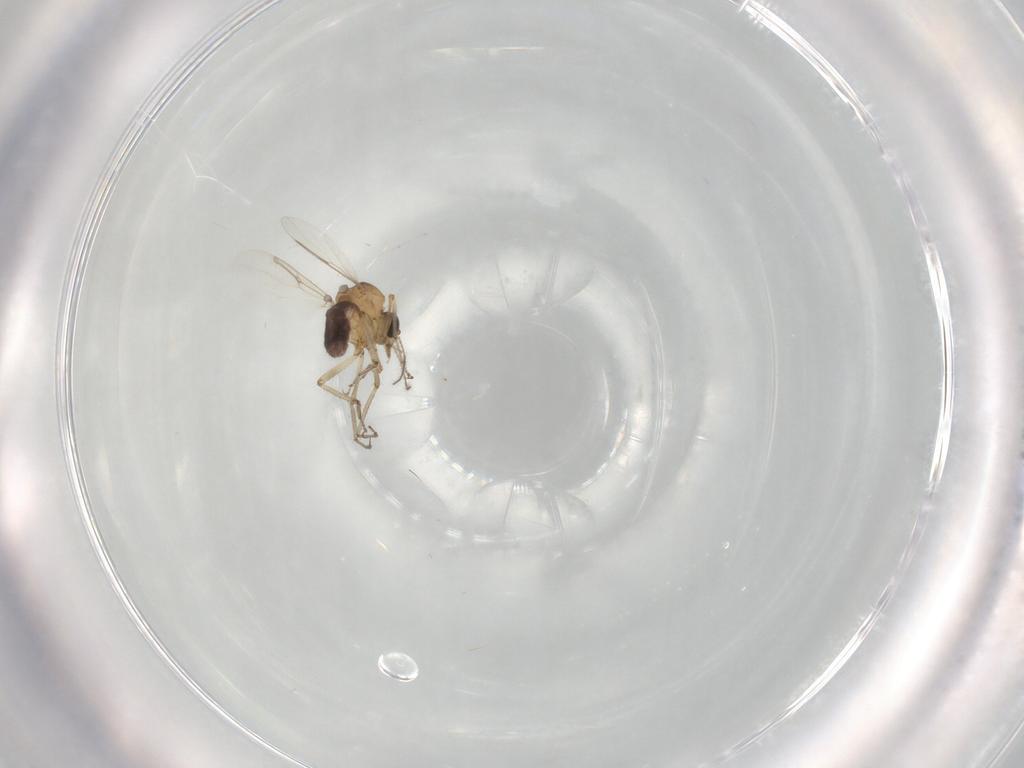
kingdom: Animalia
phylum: Arthropoda
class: Insecta
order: Diptera
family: Ceratopogonidae
